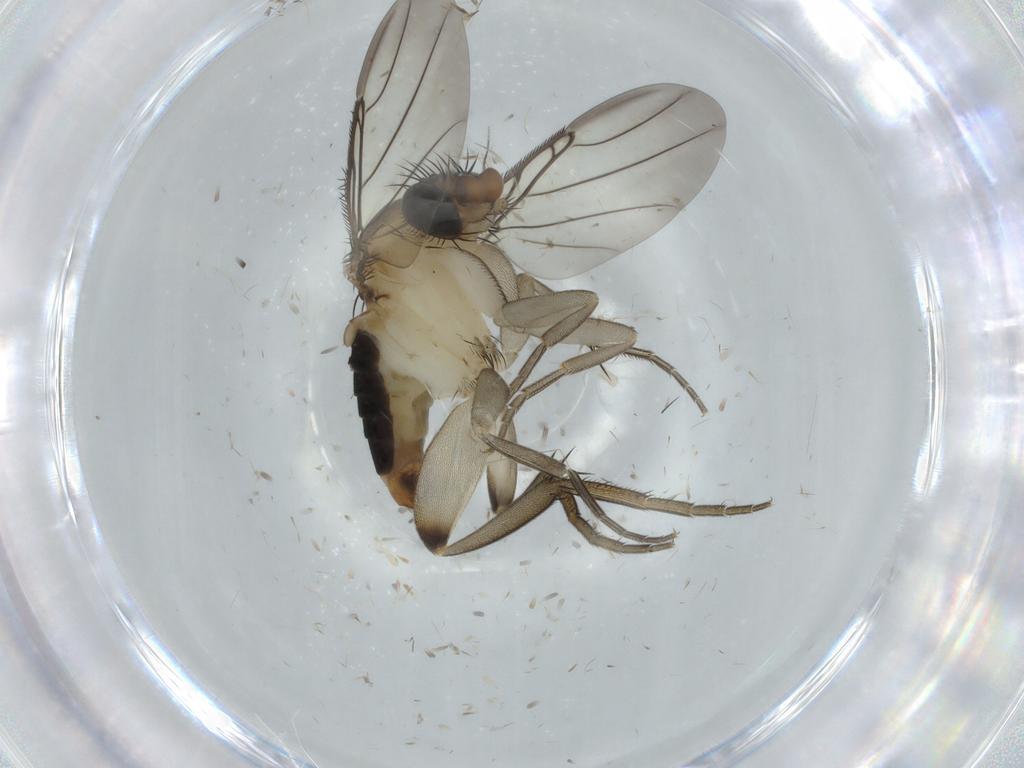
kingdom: Animalia
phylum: Arthropoda
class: Insecta
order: Diptera
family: Phoridae
